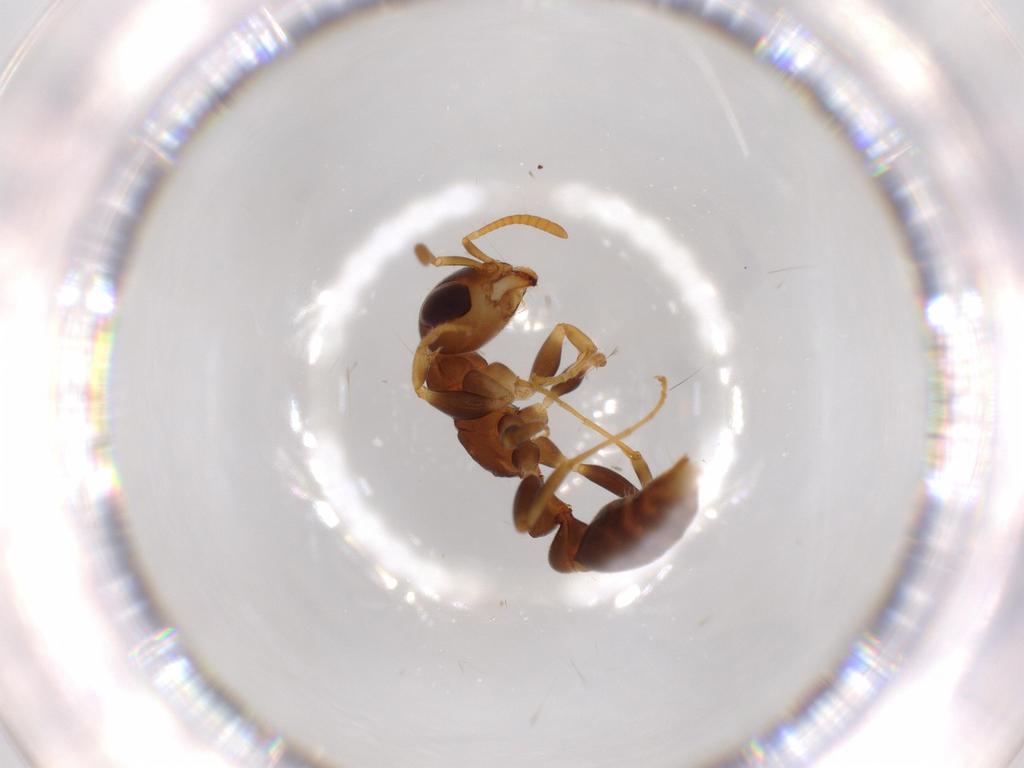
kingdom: Animalia
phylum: Arthropoda
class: Insecta
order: Hymenoptera
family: Formicidae
